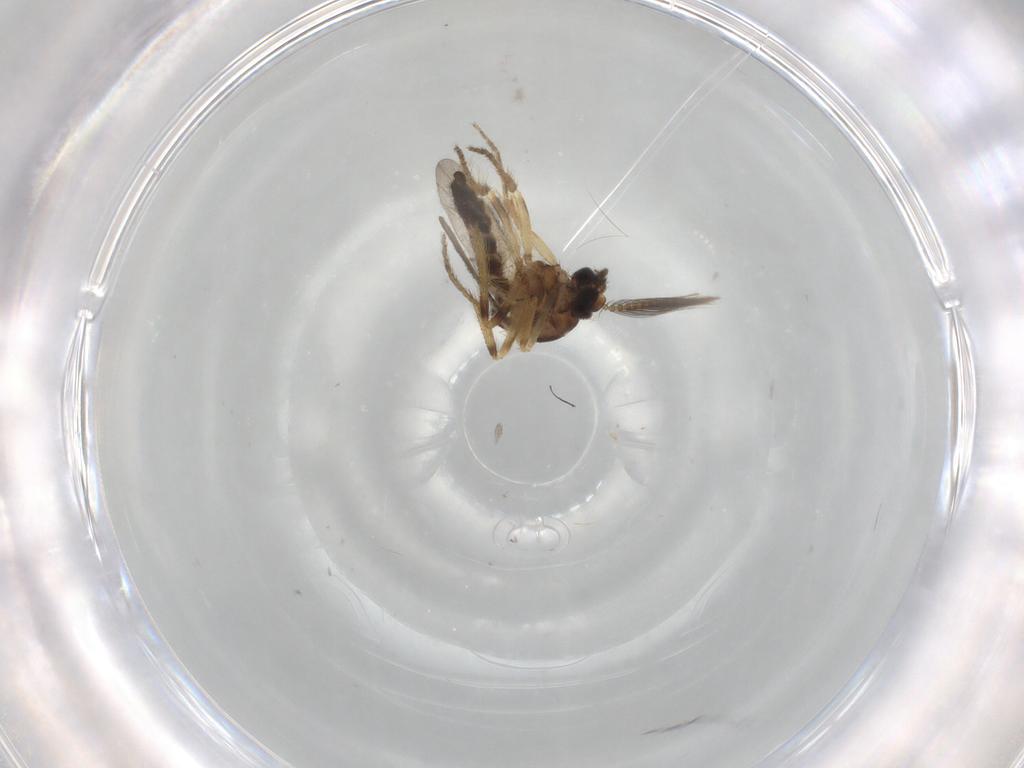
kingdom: Animalia
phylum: Arthropoda
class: Insecta
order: Diptera
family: Ceratopogonidae
